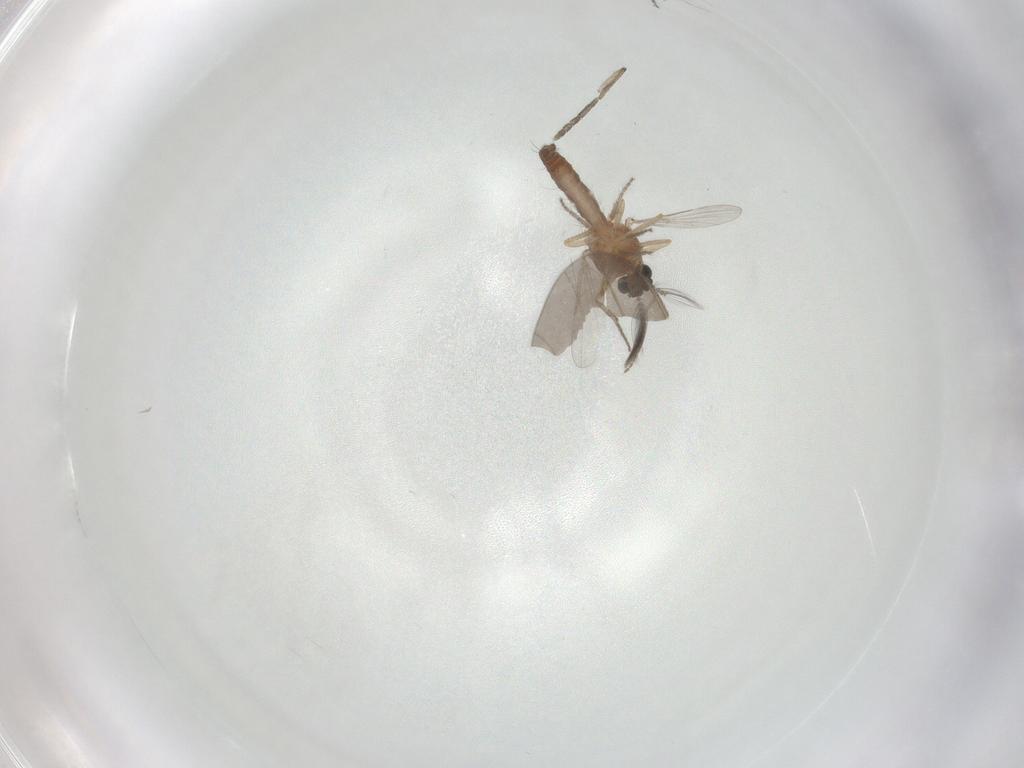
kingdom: Animalia
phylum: Arthropoda
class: Insecta
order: Diptera
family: Ceratopogonidae
